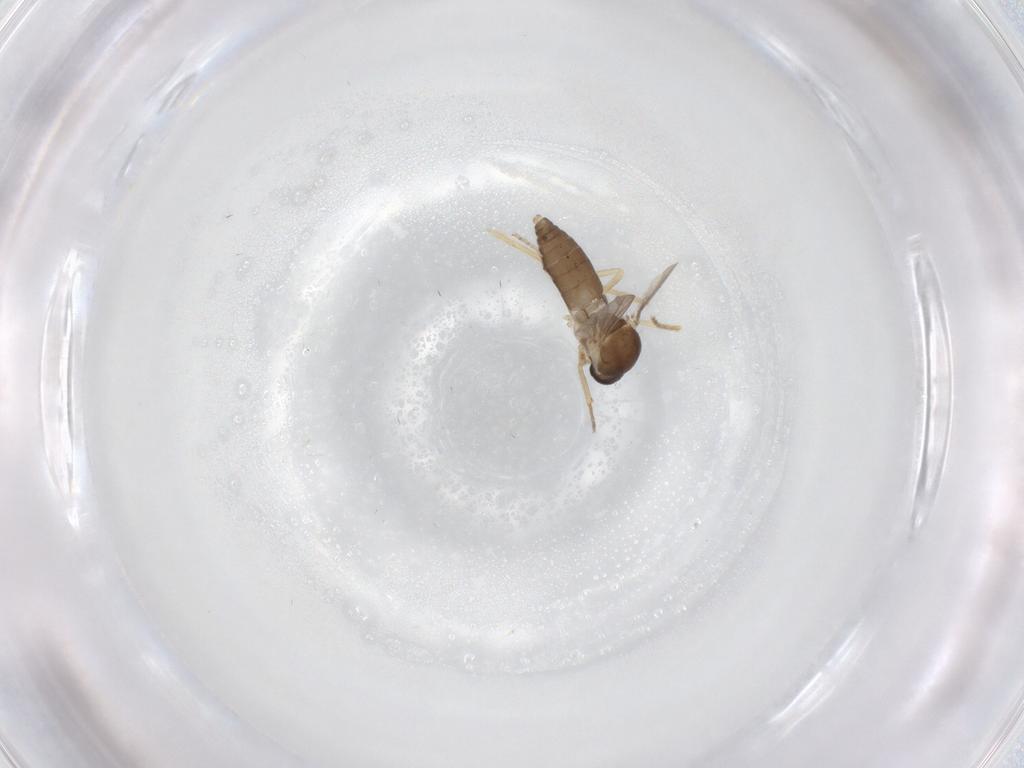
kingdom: Animalia
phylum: Arthropoda
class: Insecta
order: Diptera
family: Ceratopogonidae
